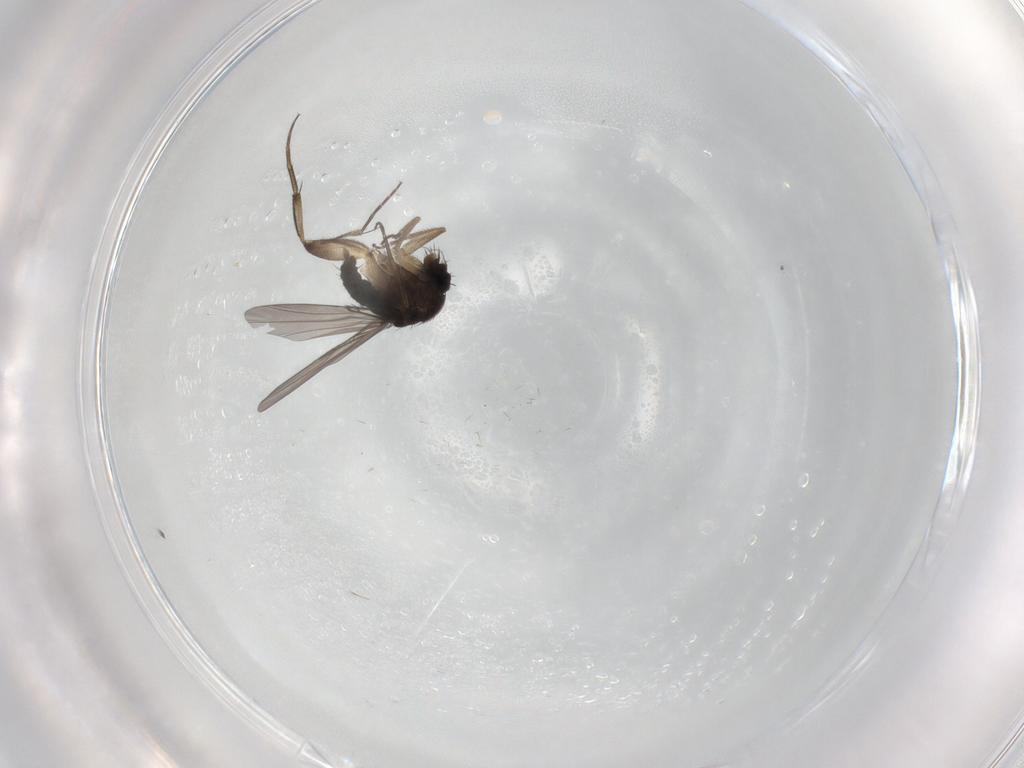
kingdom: Animalia
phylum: Arthropoda
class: Insecta
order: Diptera
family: Phoridae
